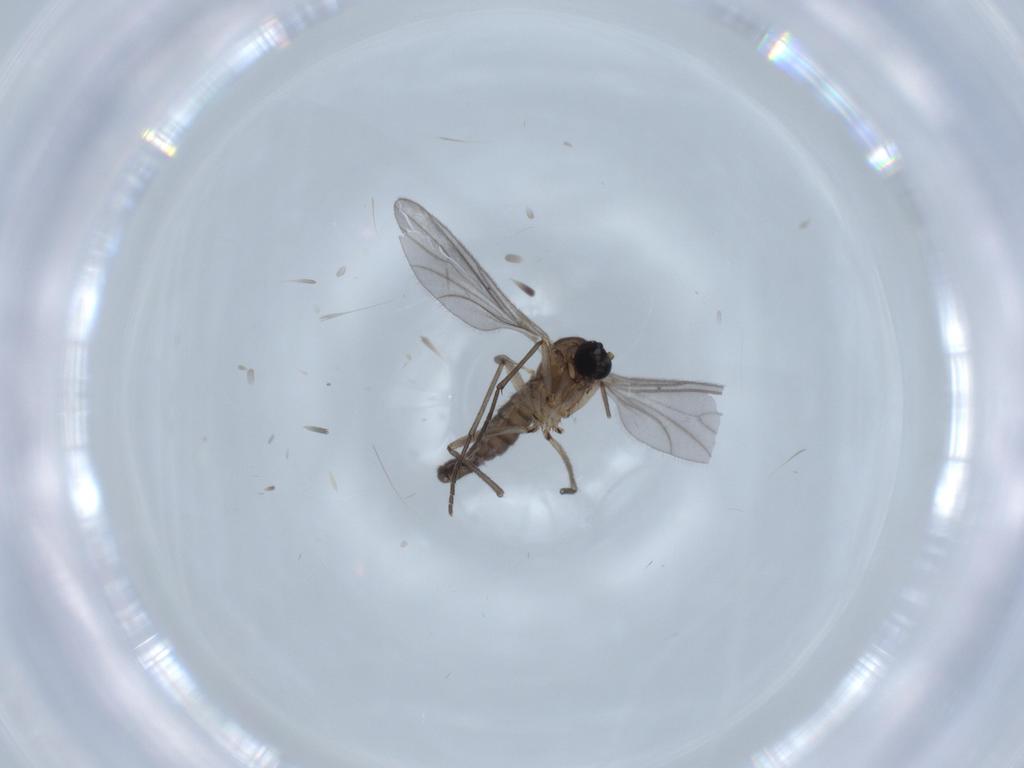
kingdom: Animalia
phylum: Arthropoda
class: Insecta
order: Diptera
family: Sciaridae
